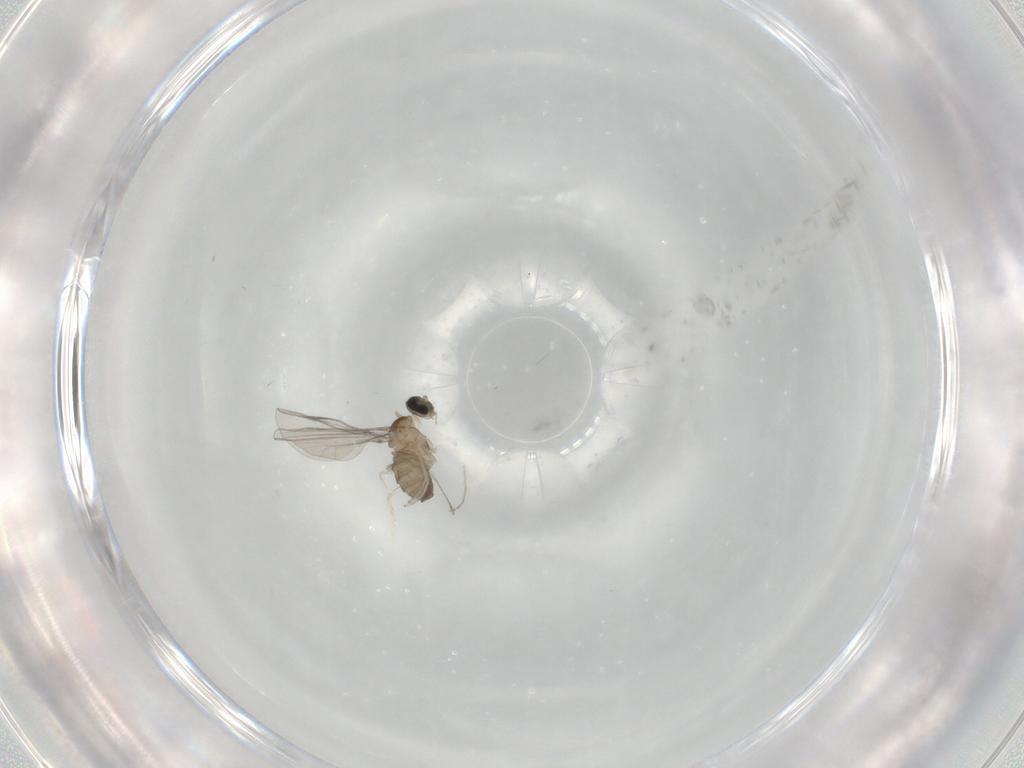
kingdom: Animalia
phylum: Arthropoda
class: Insecta
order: Diptera
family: Cecidomyiidae
